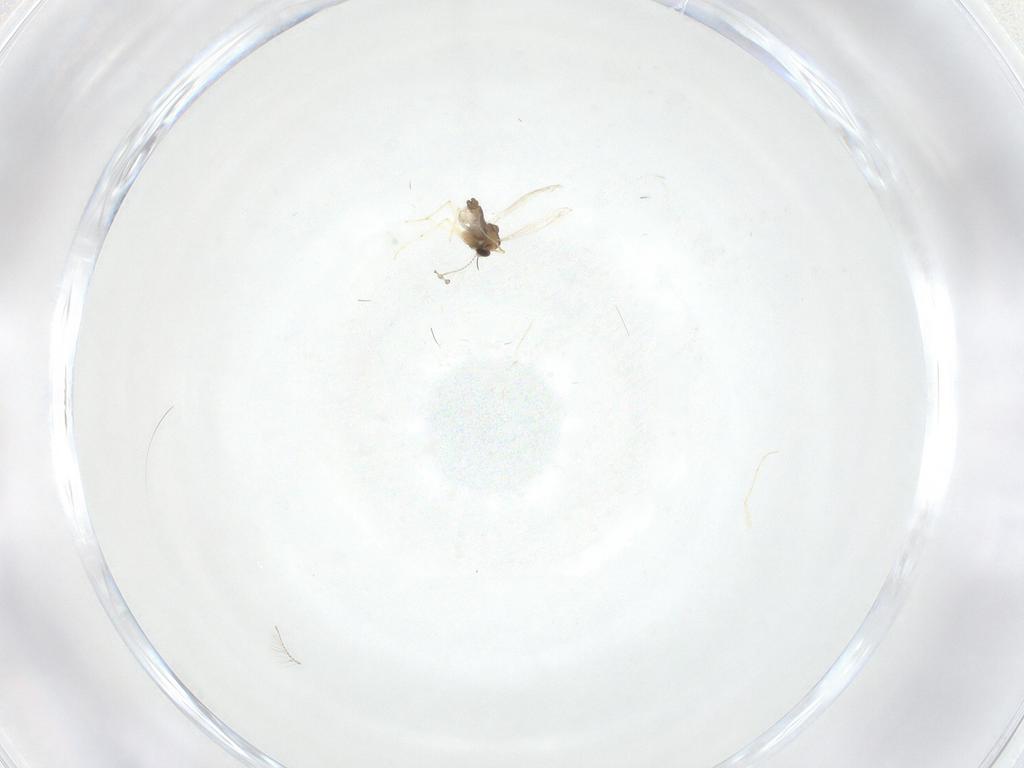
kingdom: Animalia
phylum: Arthropoda
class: Insecta
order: Diptera
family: Chironomidae
